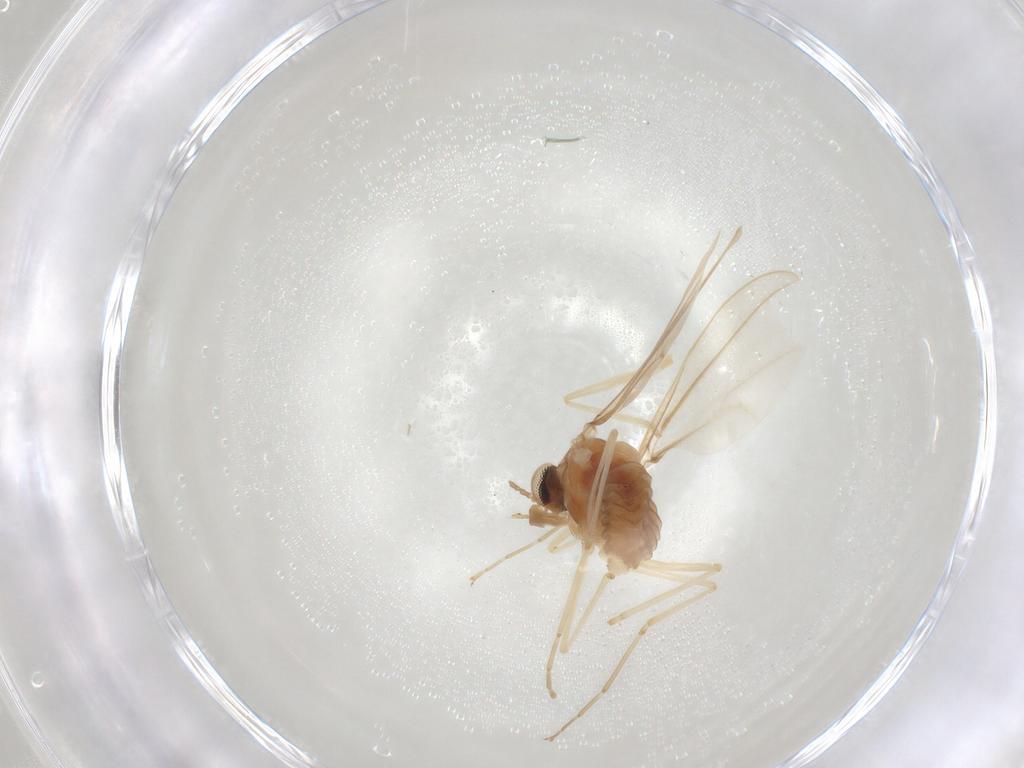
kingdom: Animalia
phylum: Arthropoda
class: Insecta
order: Diptera
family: Cecidomyiidae
